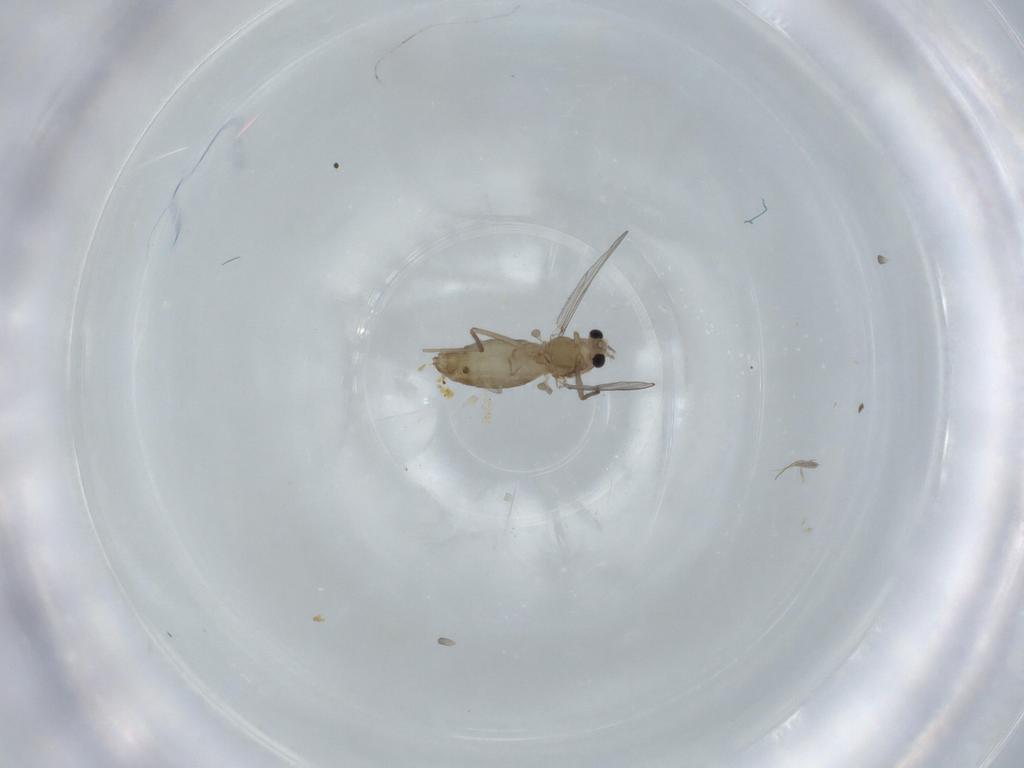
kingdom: Animalia
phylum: Arthropoda
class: Insecta
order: Diptera
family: Chironomidae
